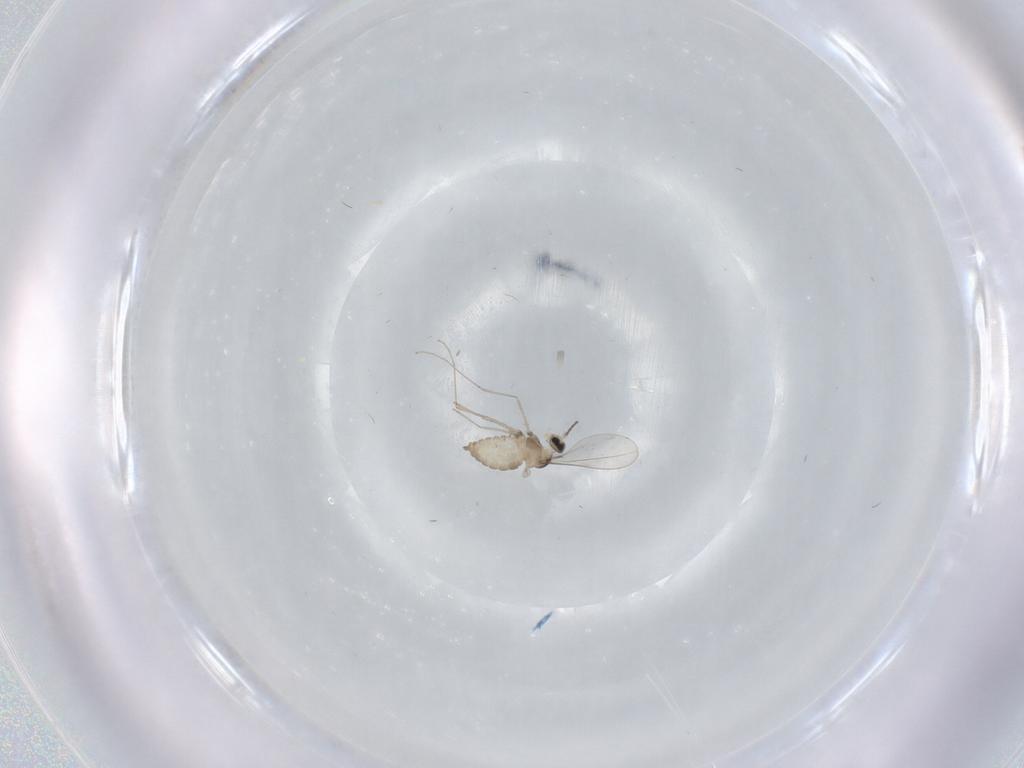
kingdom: Animalia
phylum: Arthropoda
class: Insecta
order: Diptera
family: Cecidomyiidae
